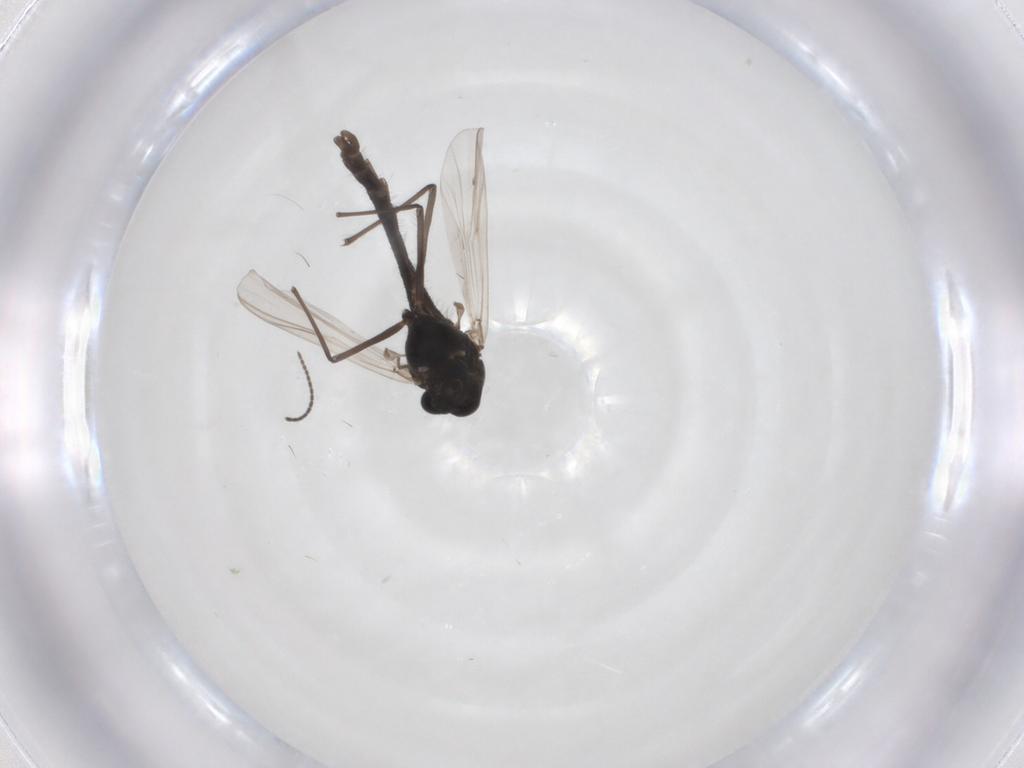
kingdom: Animalia
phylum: Arthropoda
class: Insecta
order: Diptera
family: Chironomidae
